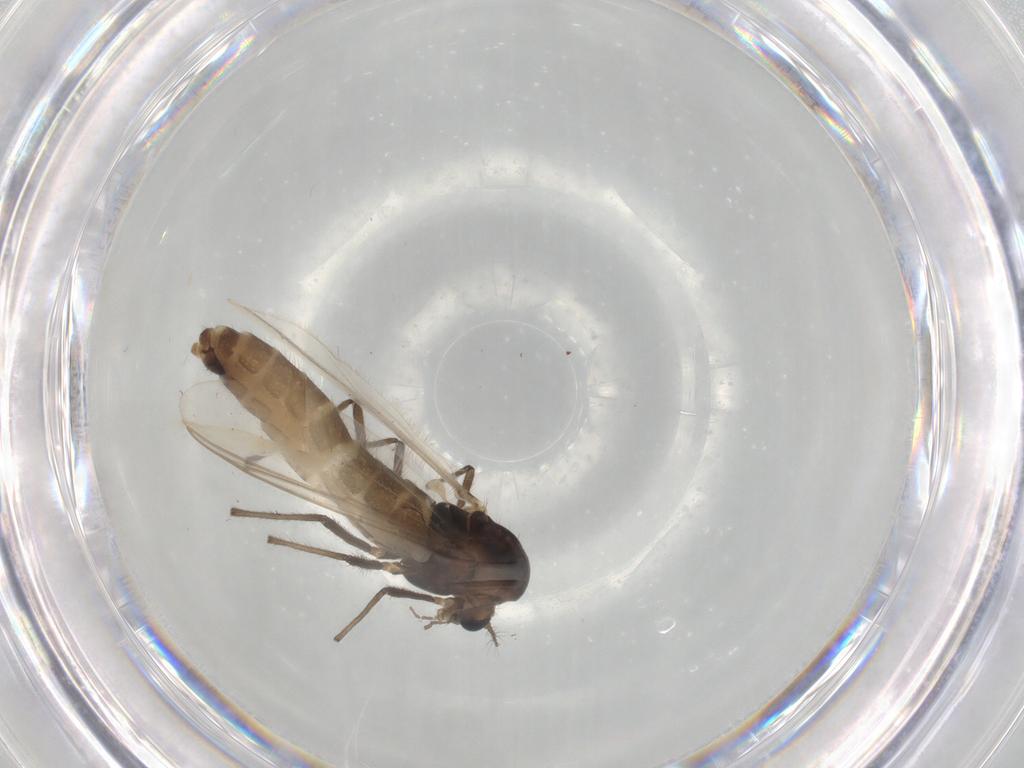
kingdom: Animalia
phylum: Arthropoda
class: Insecta
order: Diptera
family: Chironomidae
